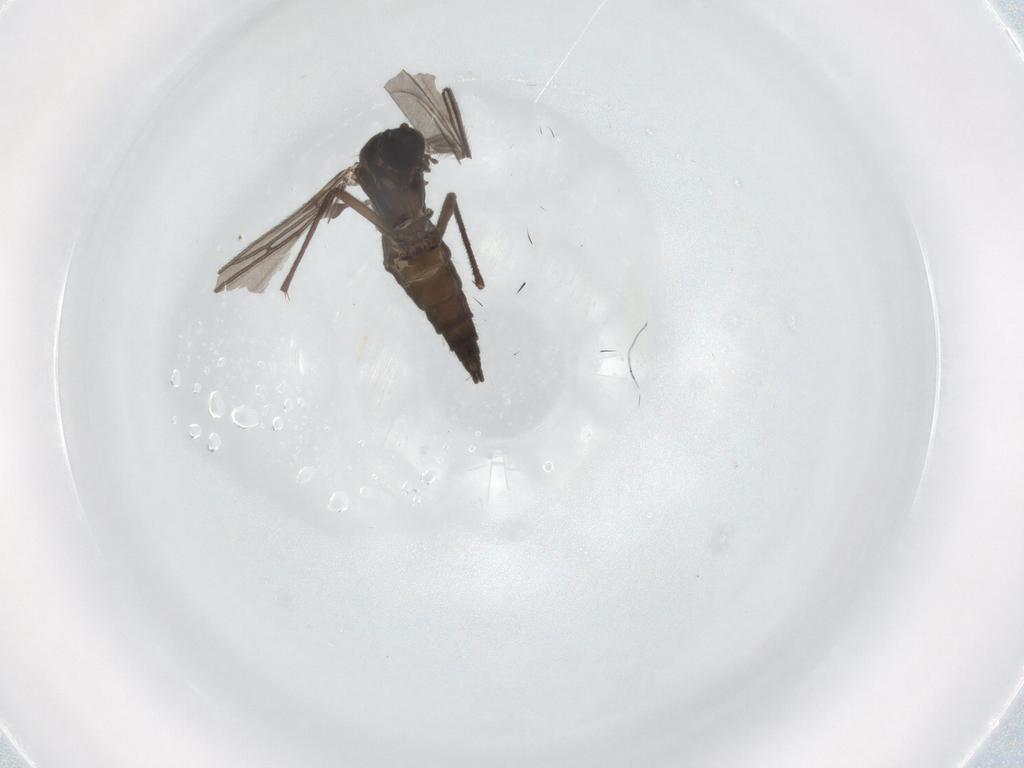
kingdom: Animalia
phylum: Arthropoda
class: Insecta
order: Diptera
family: Sciaridae
